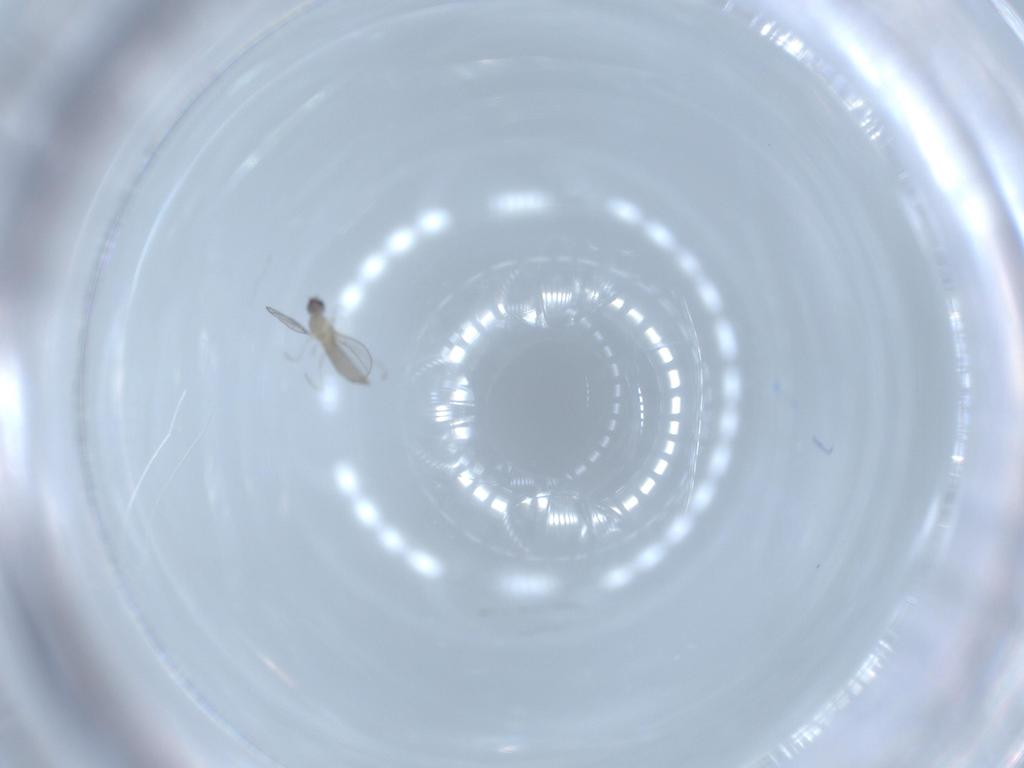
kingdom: Animalia
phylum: Arthropoda
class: Insecta
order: Diptera
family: Cecidomyiidae
